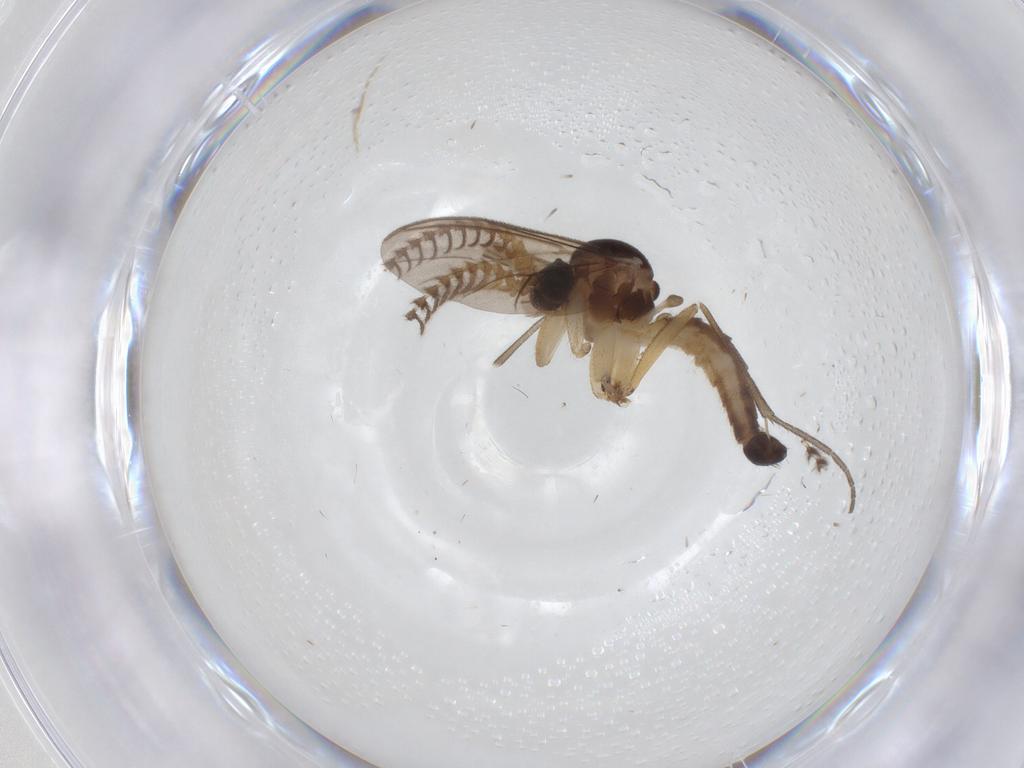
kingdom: Animalia
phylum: Arthropoda
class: Insecta
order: Diptera
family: Mycetophilidae
